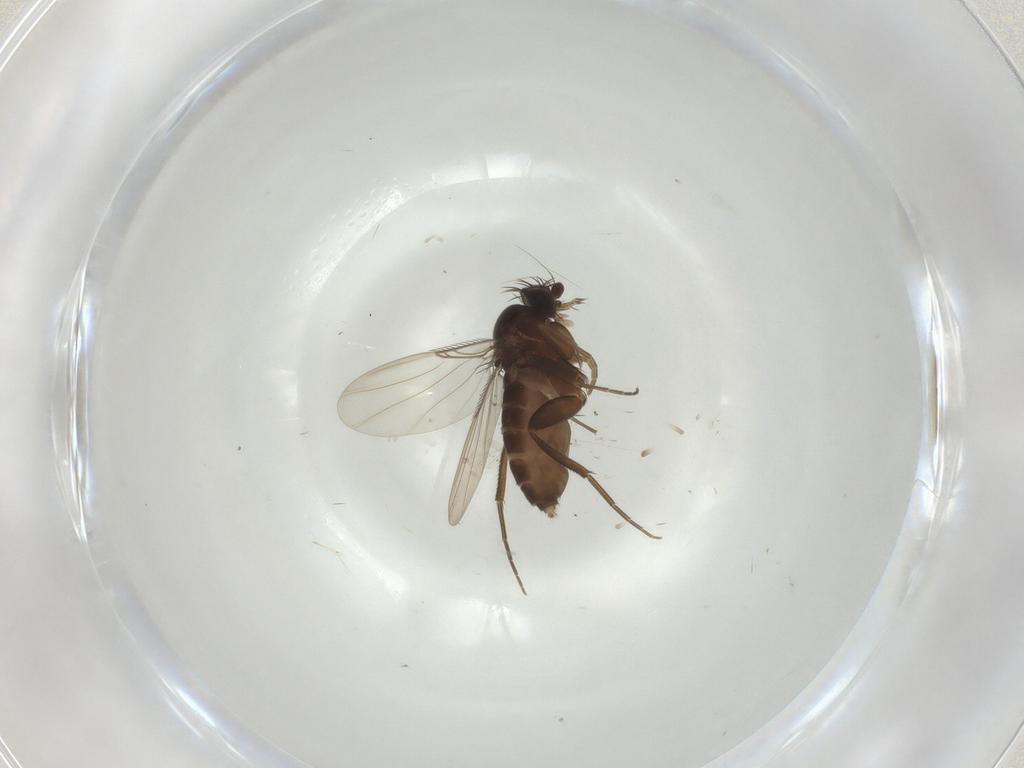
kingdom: Animalia
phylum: Arthropoda
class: Insecta
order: Diptera
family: Phoridae
